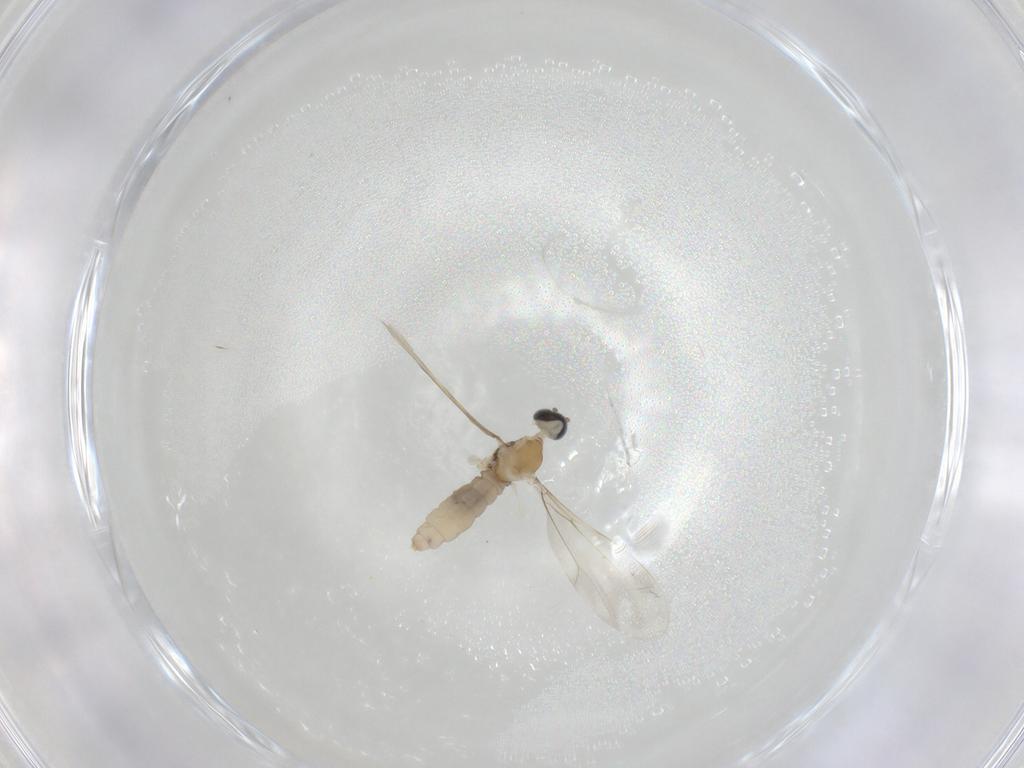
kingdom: Animalia
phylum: Arthropoda
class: Insecta
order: Diptera
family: Cecidomyiidae
